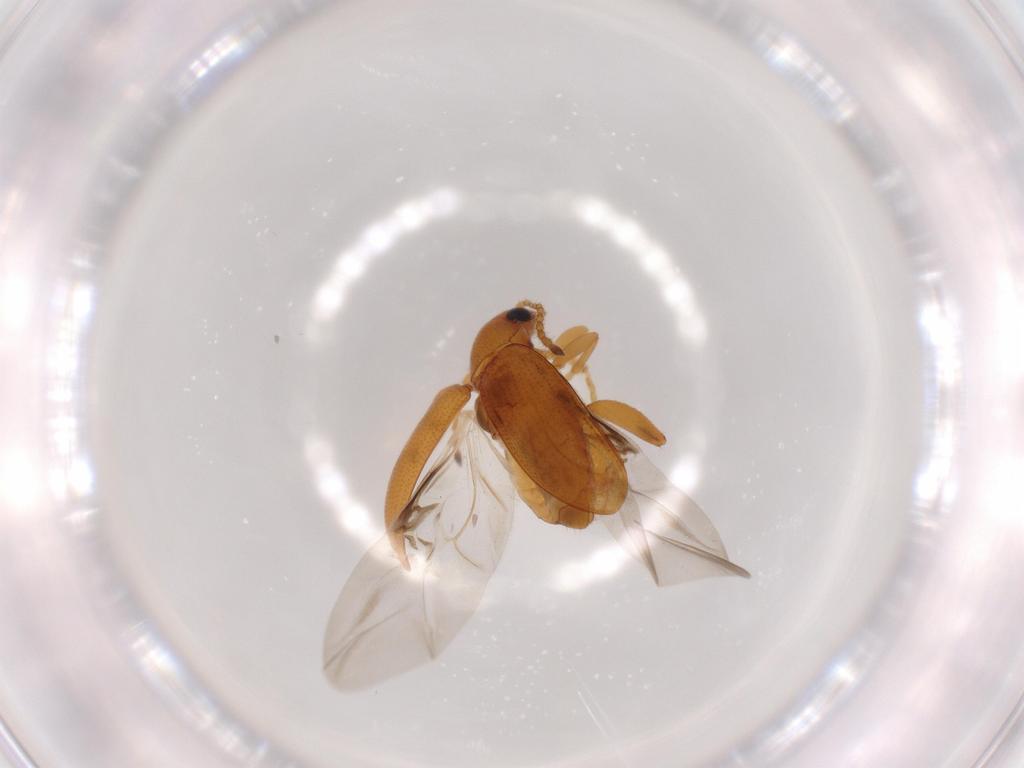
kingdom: Animalia
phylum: Arthropoda
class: Insecta
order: Coleoptera
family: Chrysomelidae
